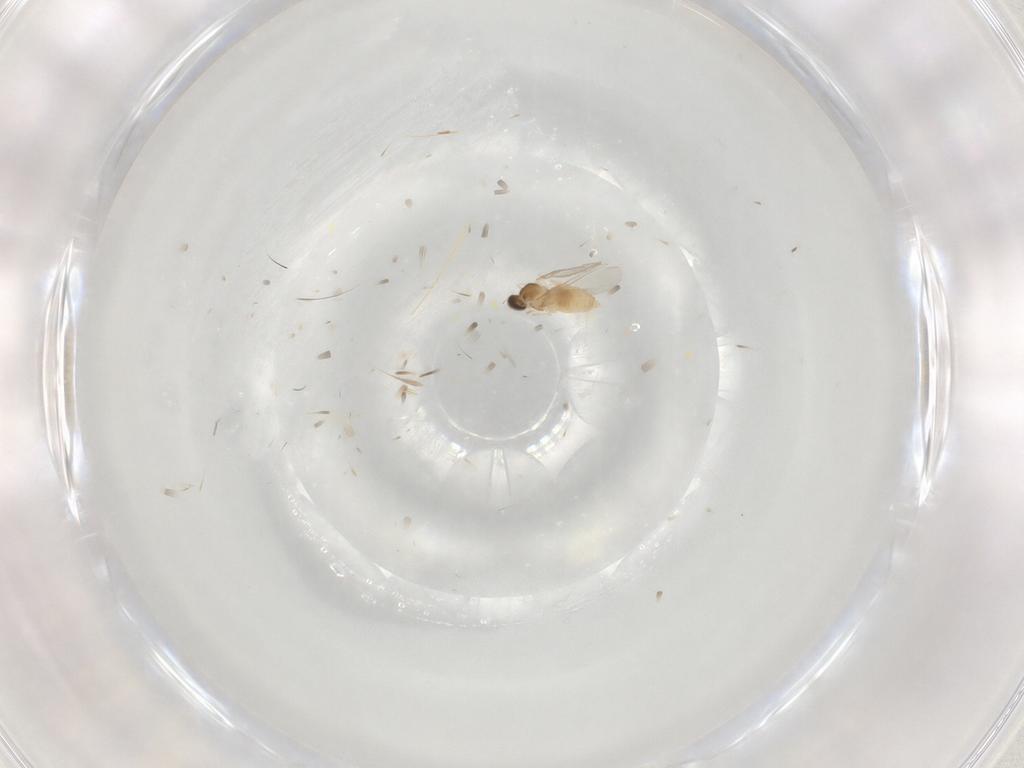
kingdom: Animalia
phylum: Arthropoda
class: Insecta
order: Diptera
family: Cecidomyiidae
